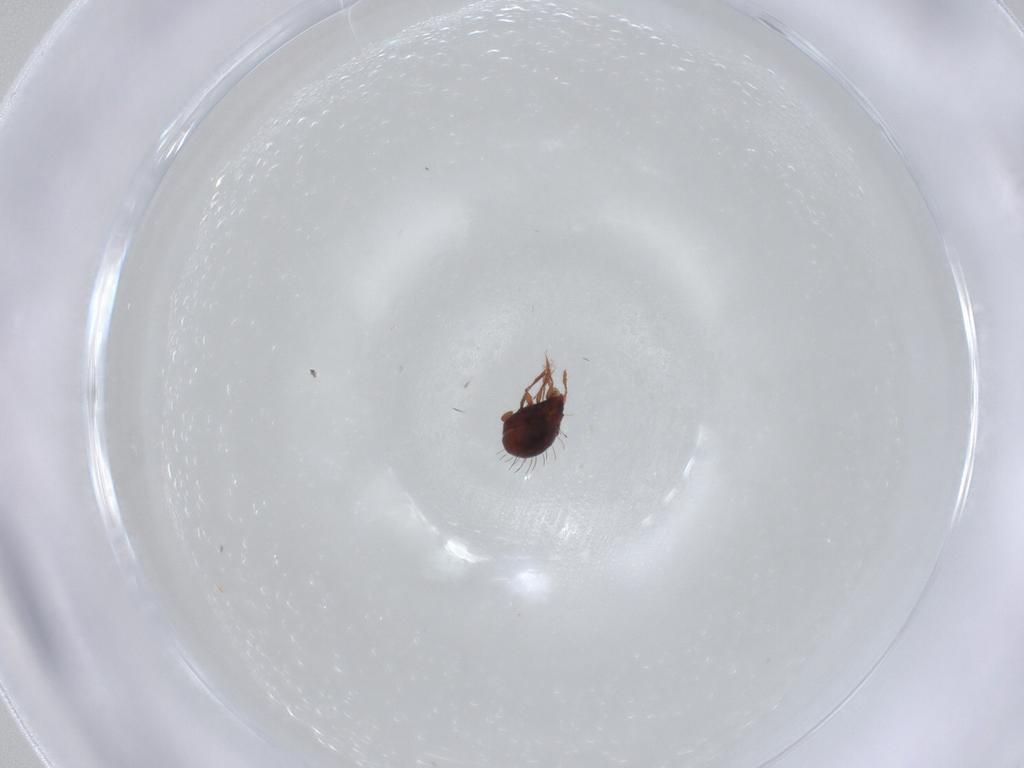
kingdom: Animalia
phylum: Arthropoda
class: Arachnida
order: Sarcoptiformes
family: Caloppiidae
